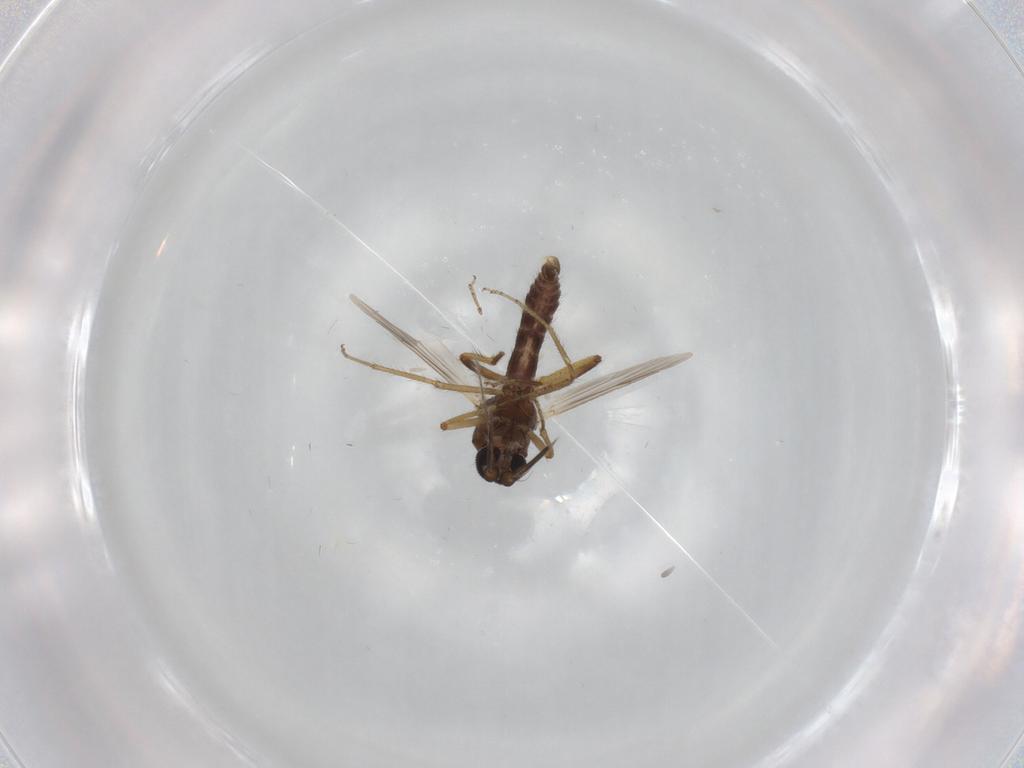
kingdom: Animalia
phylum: Arthropoda
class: Insecta
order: Diptera
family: Ceratopogonidae
